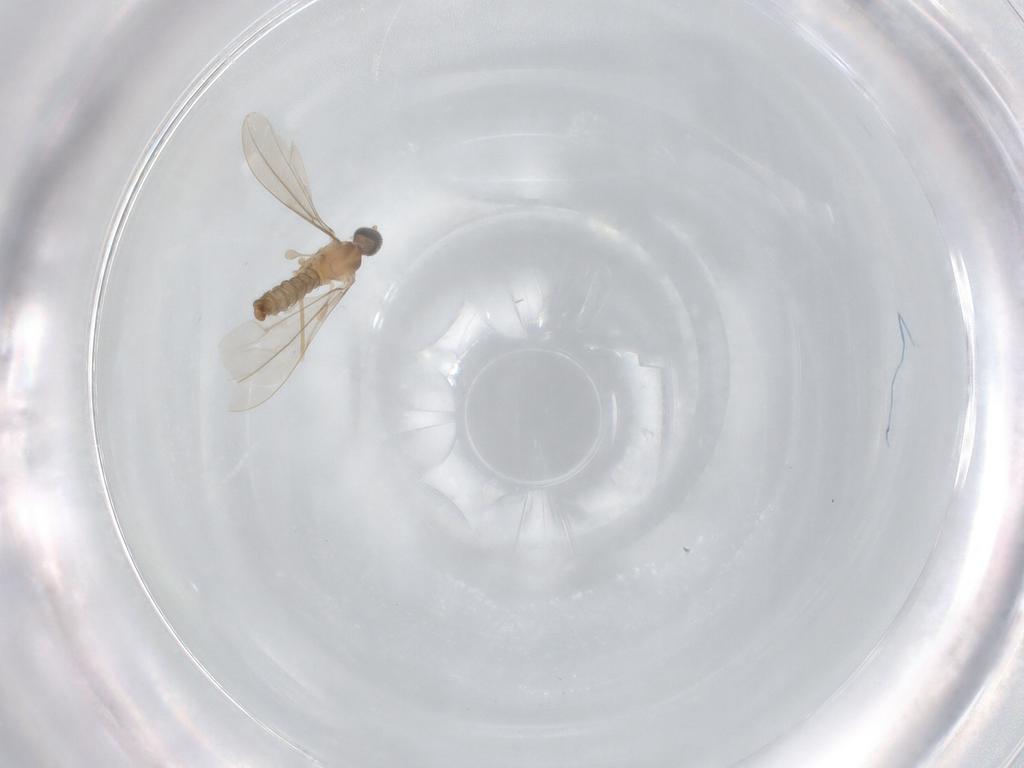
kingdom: Animalia
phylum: Arthropoda
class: Insecta
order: Diptera
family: Cecidomyiidae
